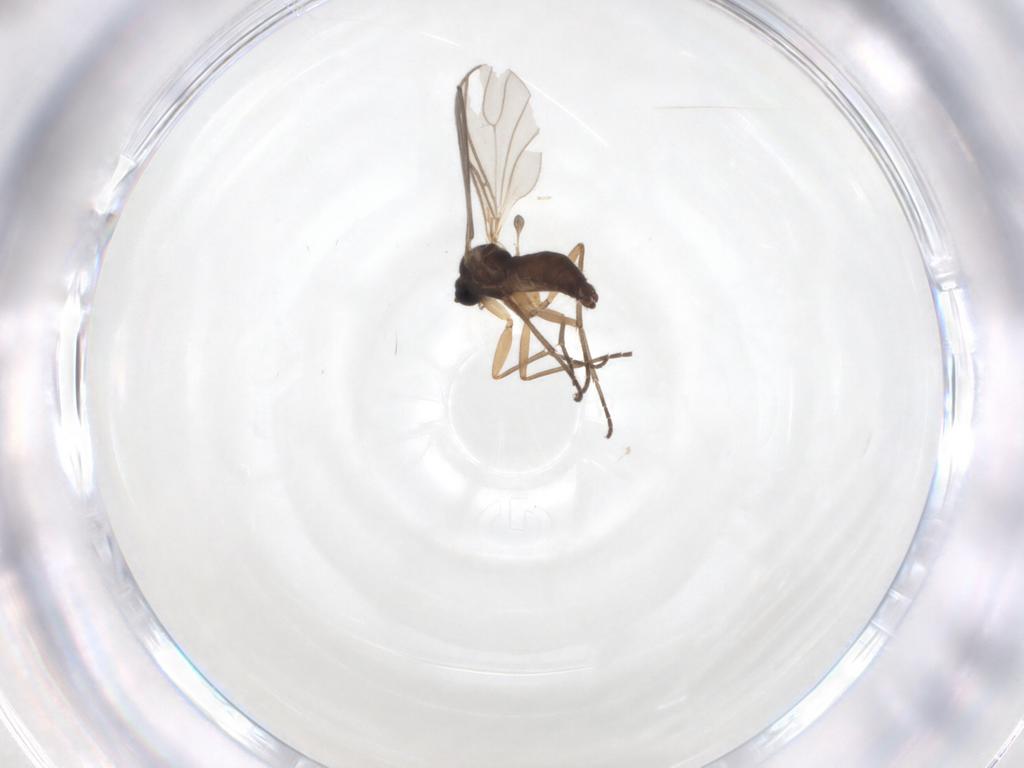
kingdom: Animalia
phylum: Arthropoda
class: Insecta
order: Diptera
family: Sciaridae
